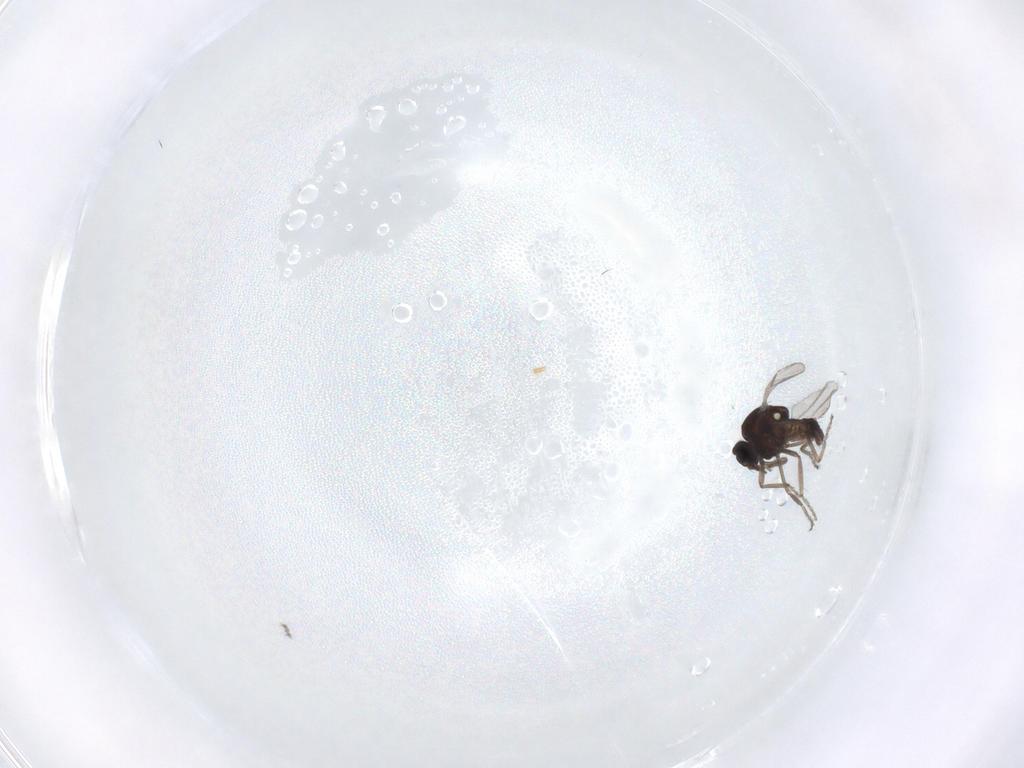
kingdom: Animalia
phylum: Arthropoda
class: Insecta
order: Diptera
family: Ceratopogonidae
